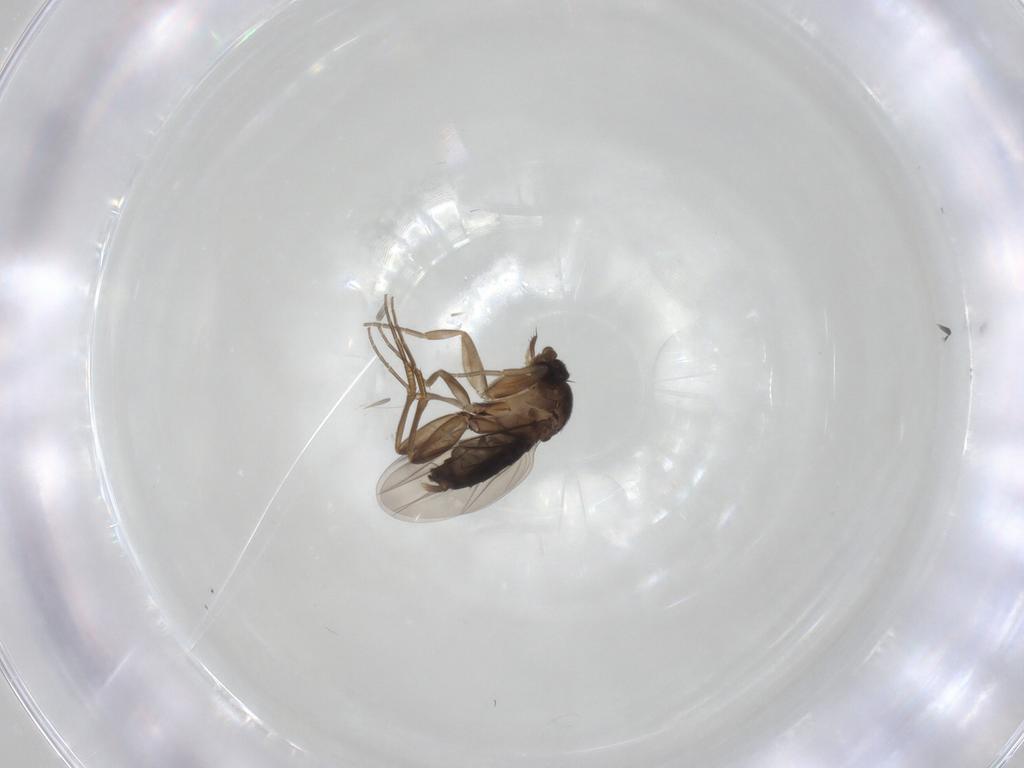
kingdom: Animalia
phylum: Arthropoda
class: Insecta
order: Diptera
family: Phoridae
